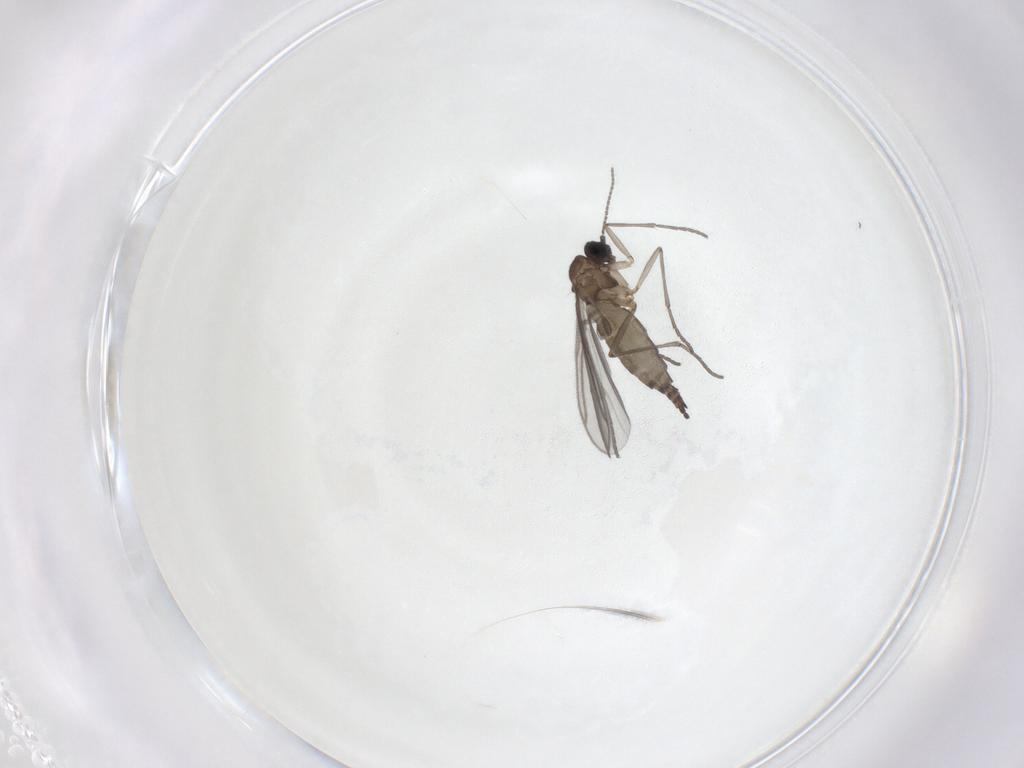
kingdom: Animalia
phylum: Arthropoda
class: Insecta
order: Diptera
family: Sciaridae
